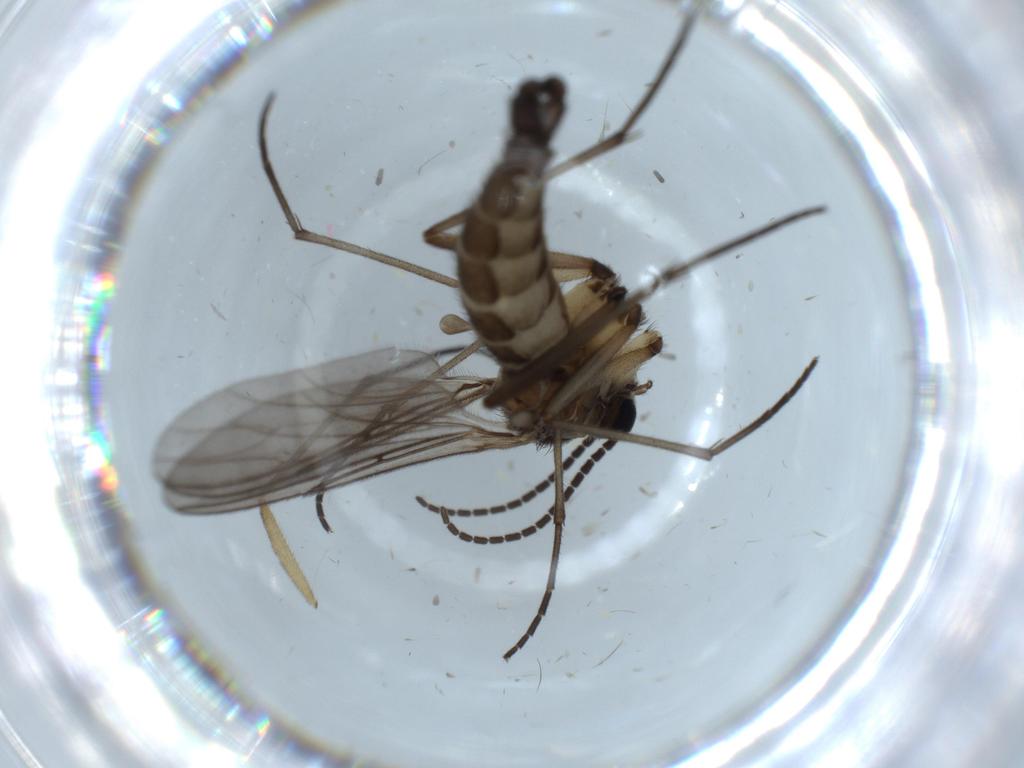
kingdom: Animalia
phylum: Arthropoda
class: Insecta
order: Diptera
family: Sciaridae
